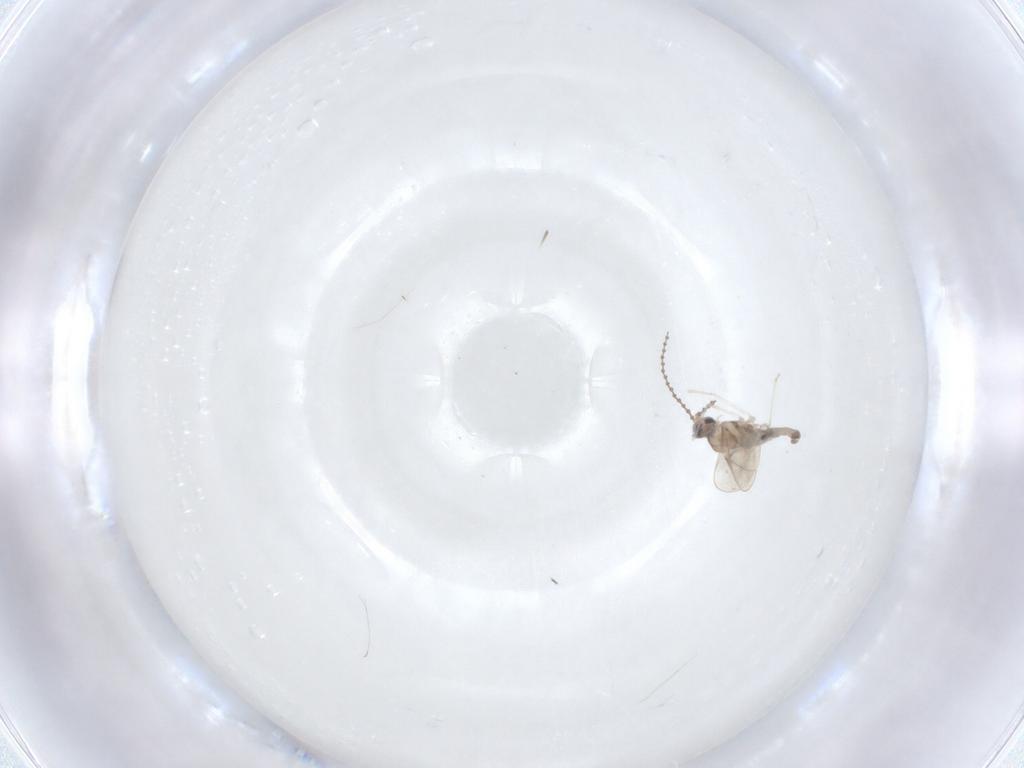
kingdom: Animalia
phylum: Arthropoda
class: Insecta
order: Diptera
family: Cecidomyiidae
